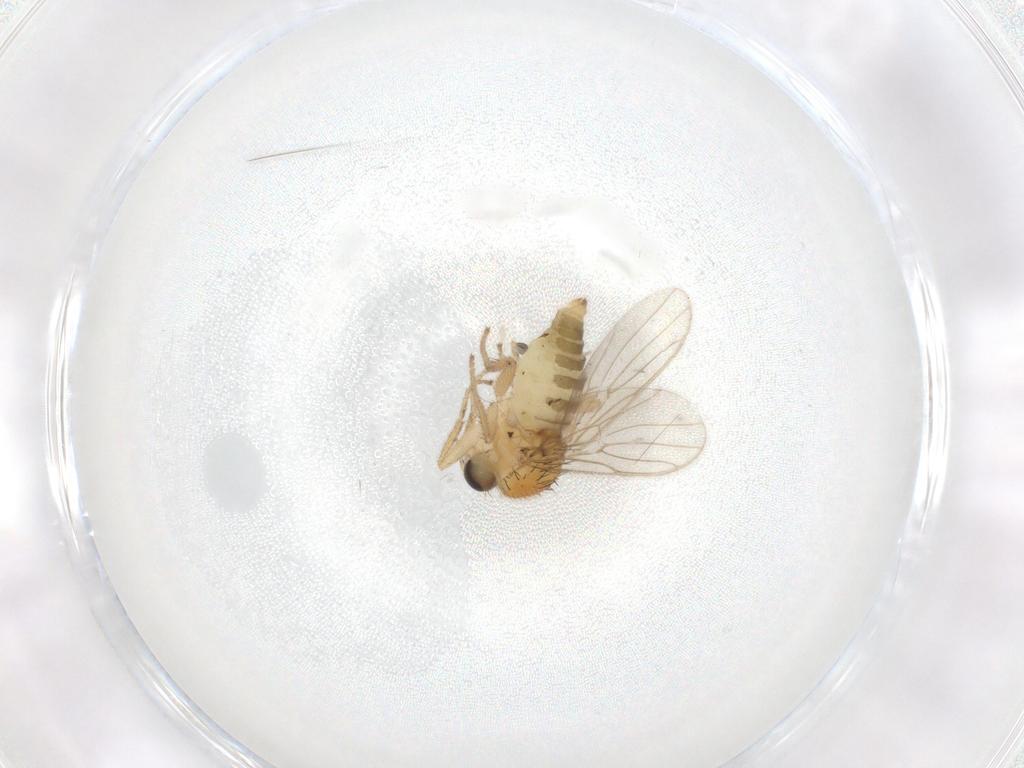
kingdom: Animalia
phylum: Arthropoda
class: Insecta
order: Diptera
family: Hybotidae
